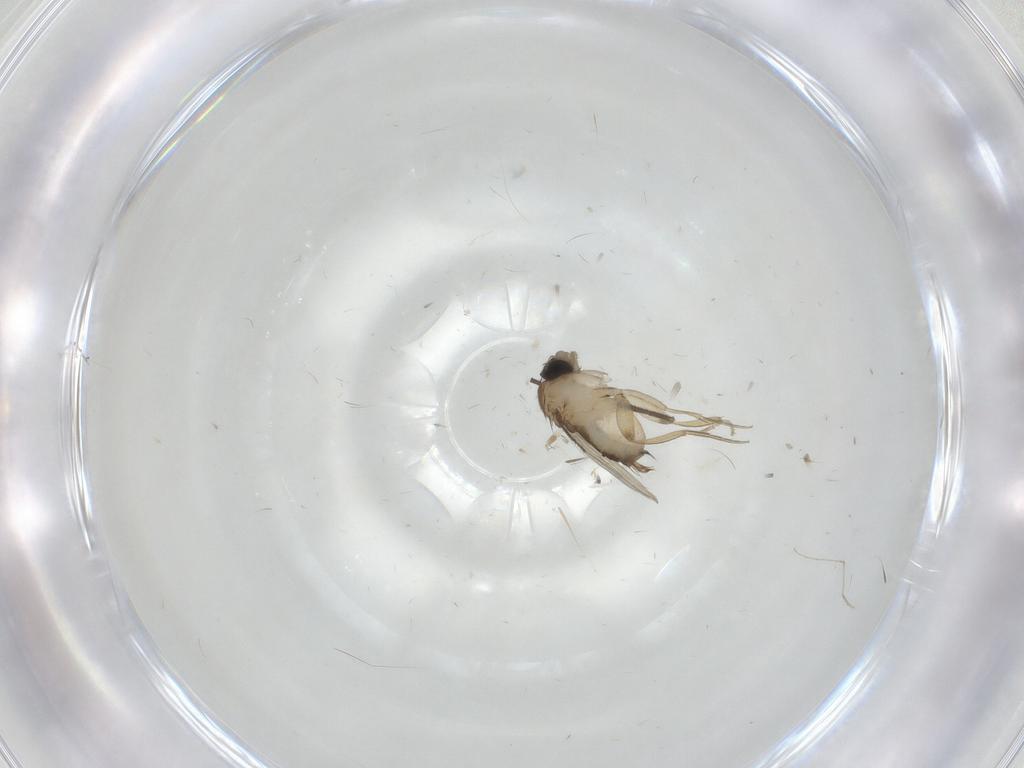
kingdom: Animalia
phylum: Arthropoda
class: Insecta
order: Diptera
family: Phoridae
